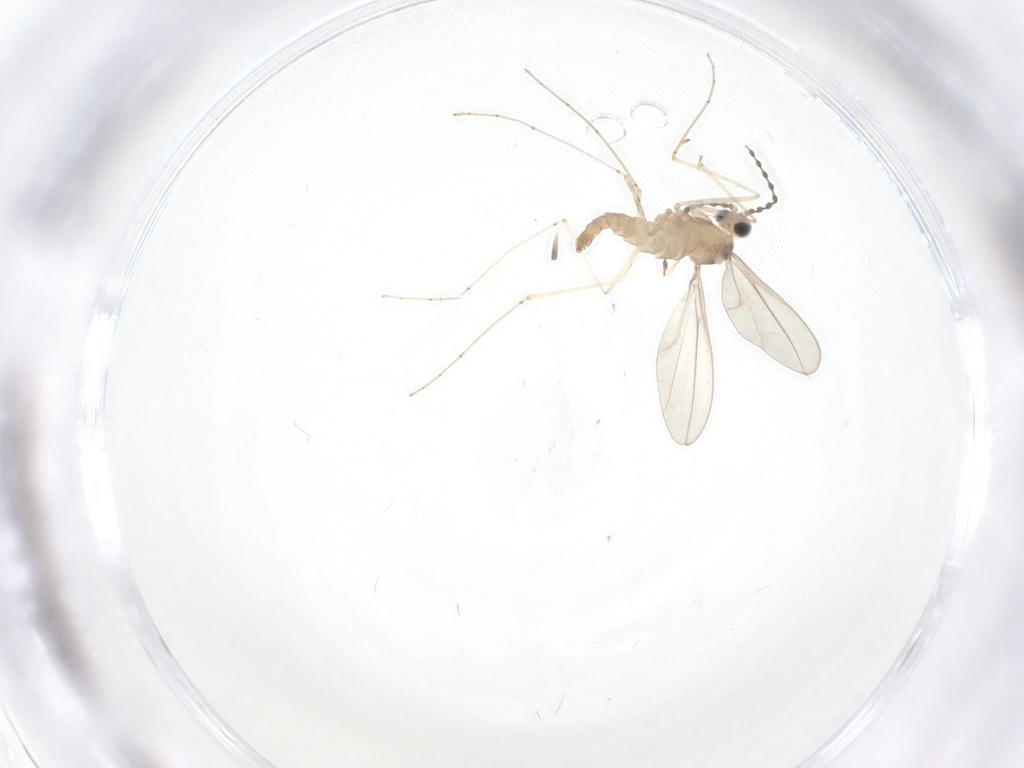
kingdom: Animalia
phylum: Arthropoda
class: Insecta
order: Diptera
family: Cecidomyiidae
